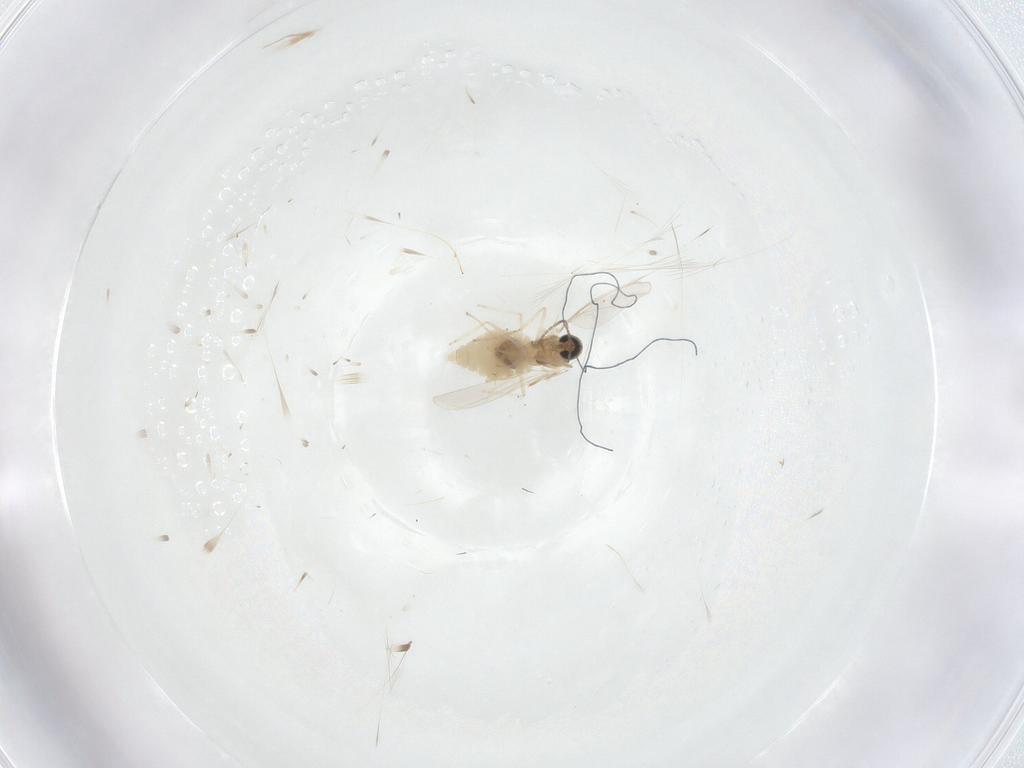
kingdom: Animalia
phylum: Arthropoda
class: Insecta
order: Diptera
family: Cecidomyiidae
